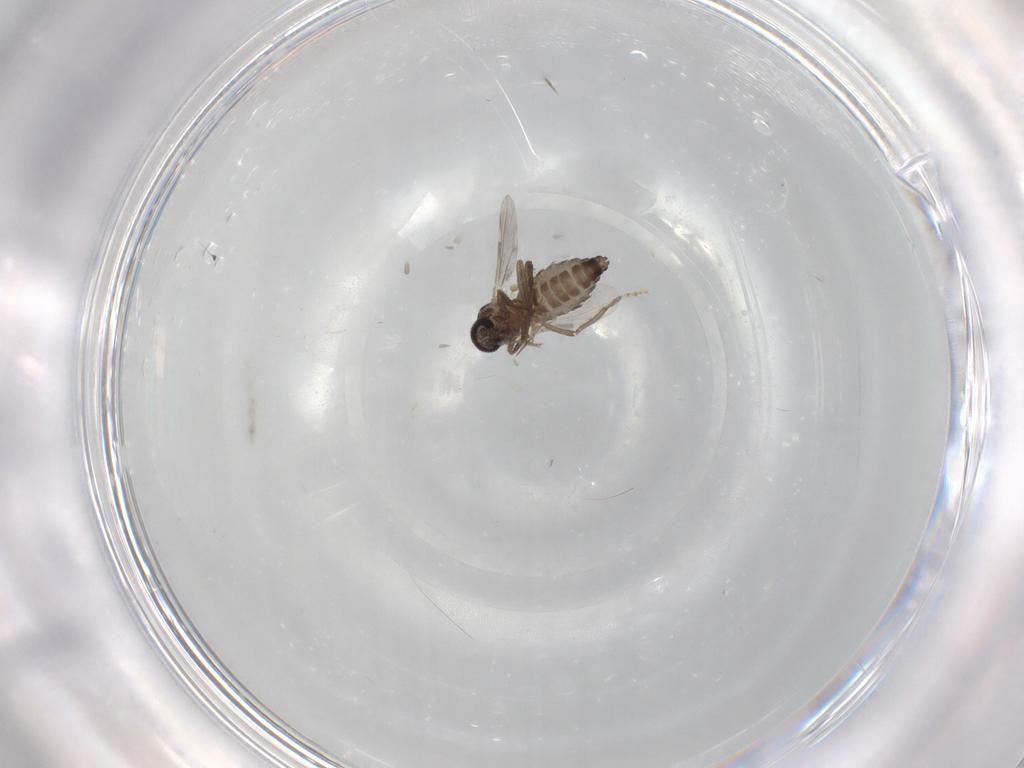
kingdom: Animalia
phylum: Arthropoda
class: Insecta
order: Diptera
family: Ceratopogonidae
